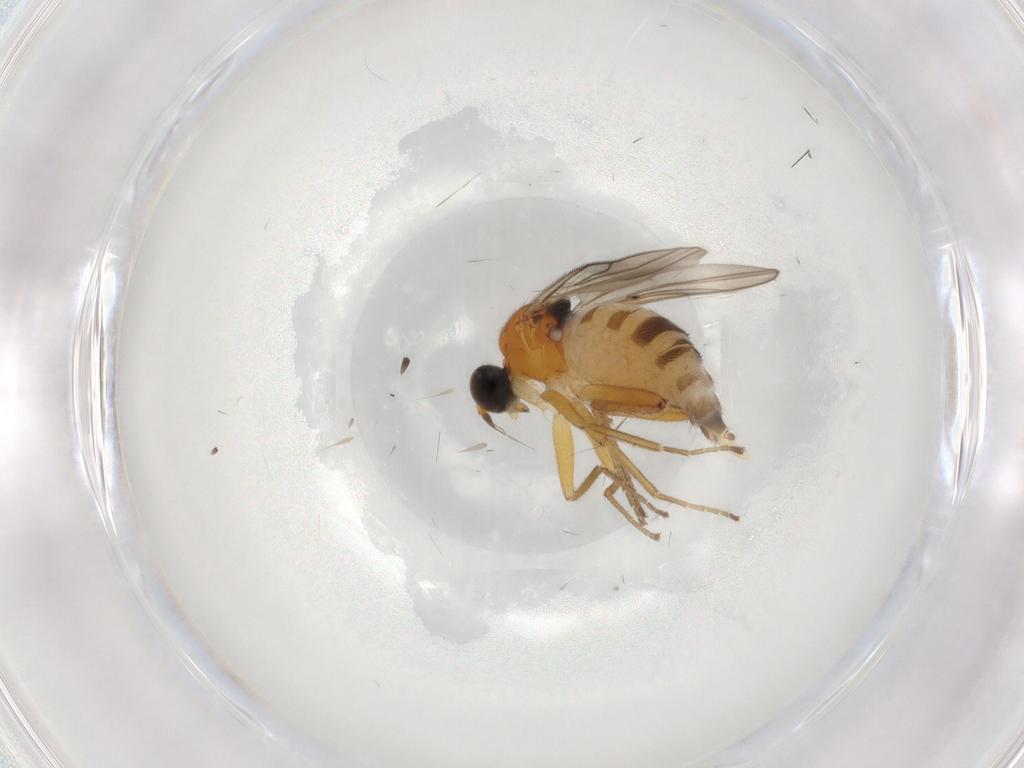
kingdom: Animalia
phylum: Arthropoda
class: Insecta
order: Diptera
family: Hybotidae
